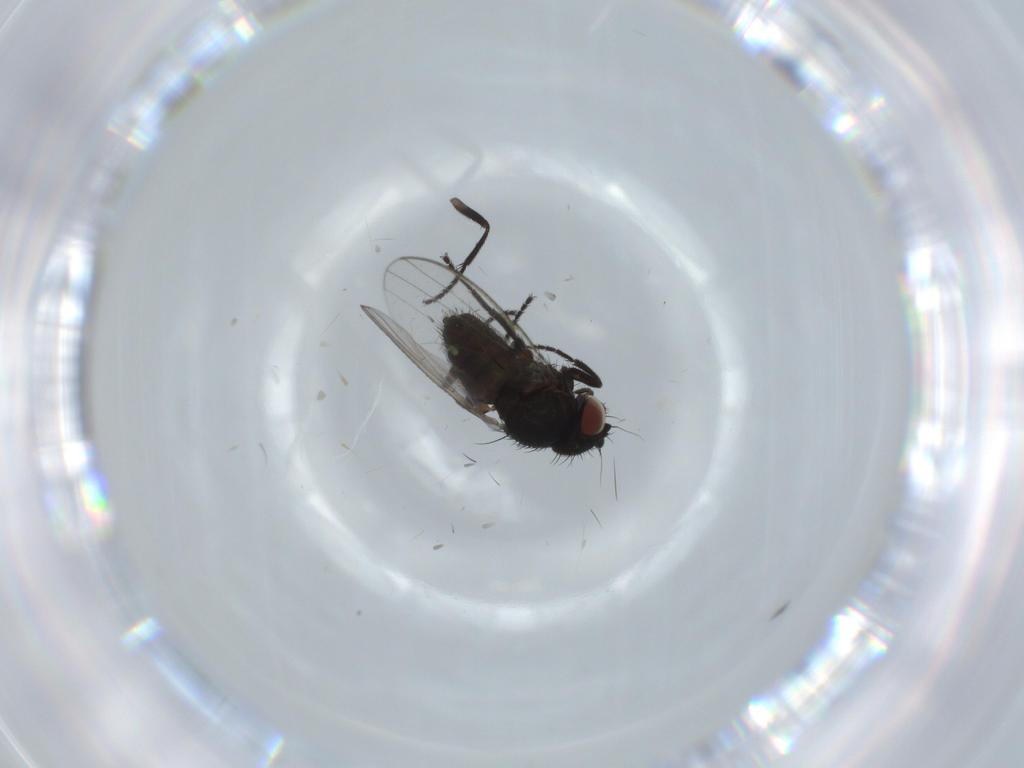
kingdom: Animalia
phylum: Arthropoda
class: Insecta
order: Diptera
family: Milichiidae
